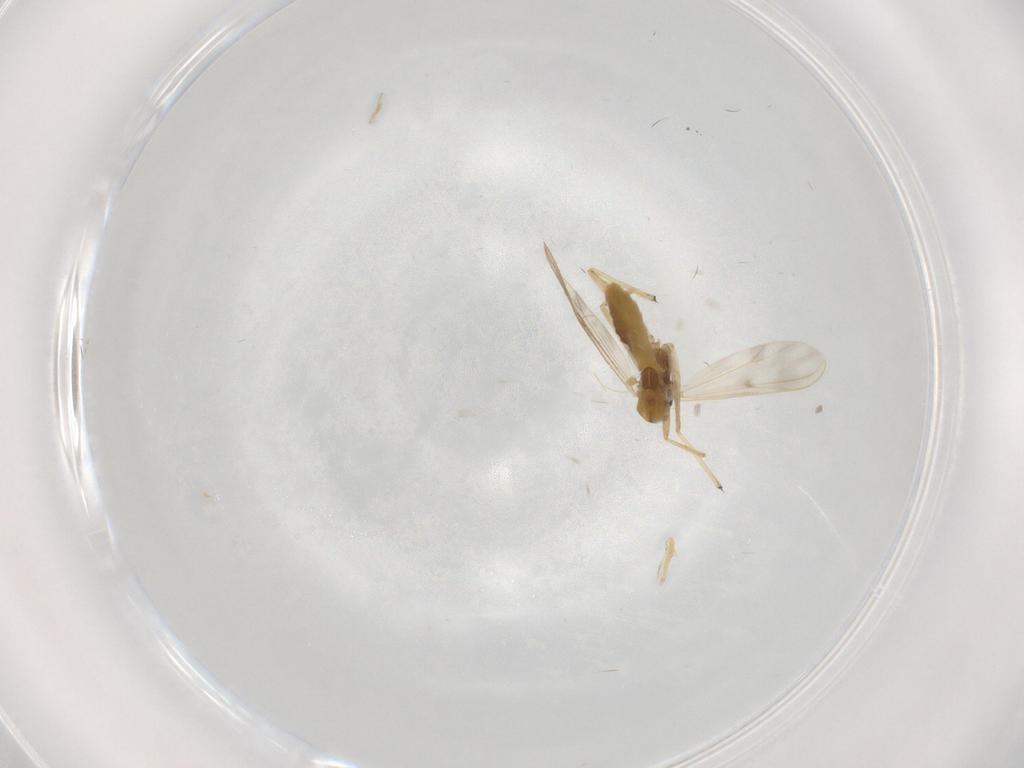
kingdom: Animalia
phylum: Arthropoda
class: Insecta
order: Diptera
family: Chironomidae
